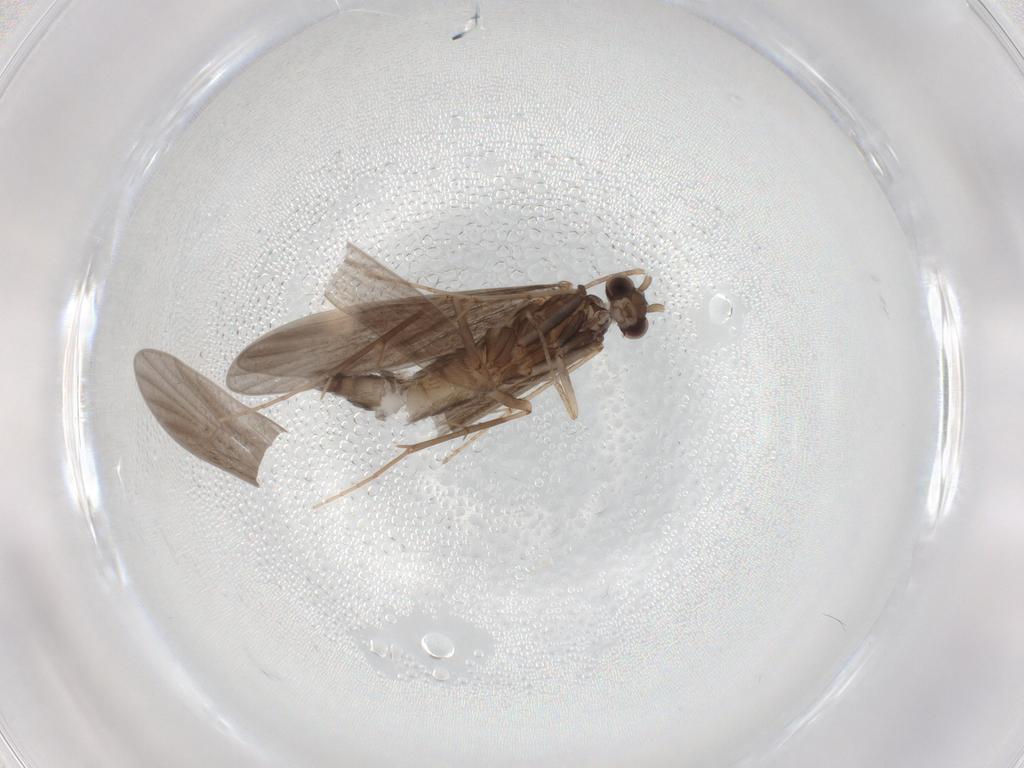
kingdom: Animalia
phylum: Arthropoda
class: Insecta
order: Trichoptera
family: Xiphocentronidae
